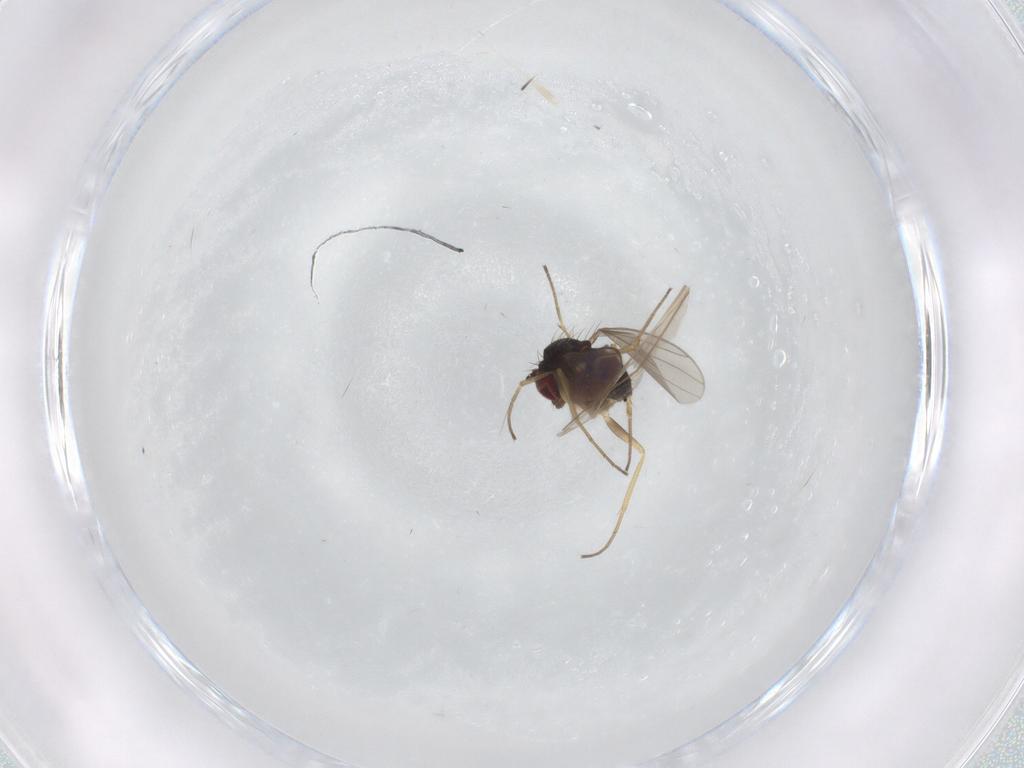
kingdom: Animalia
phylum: Arthropoda
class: Insecta
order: Diptera
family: Dolichopodidae
